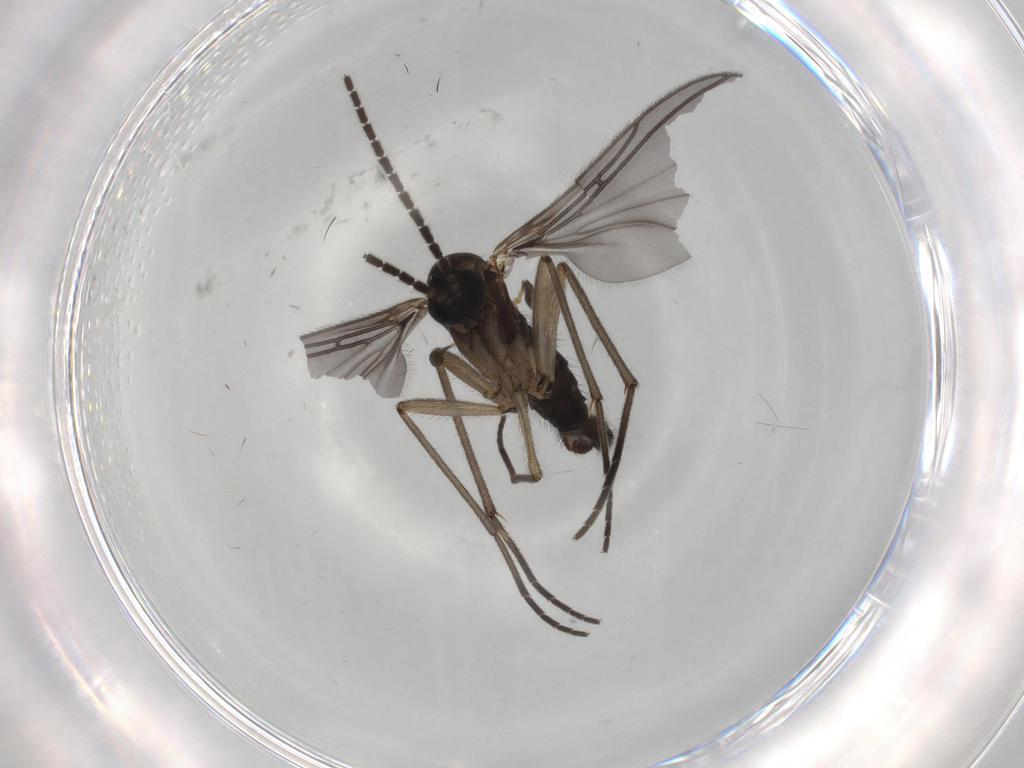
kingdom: Animalia
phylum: Arthropoda
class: Insecta
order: Diptera
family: Sciaridae
